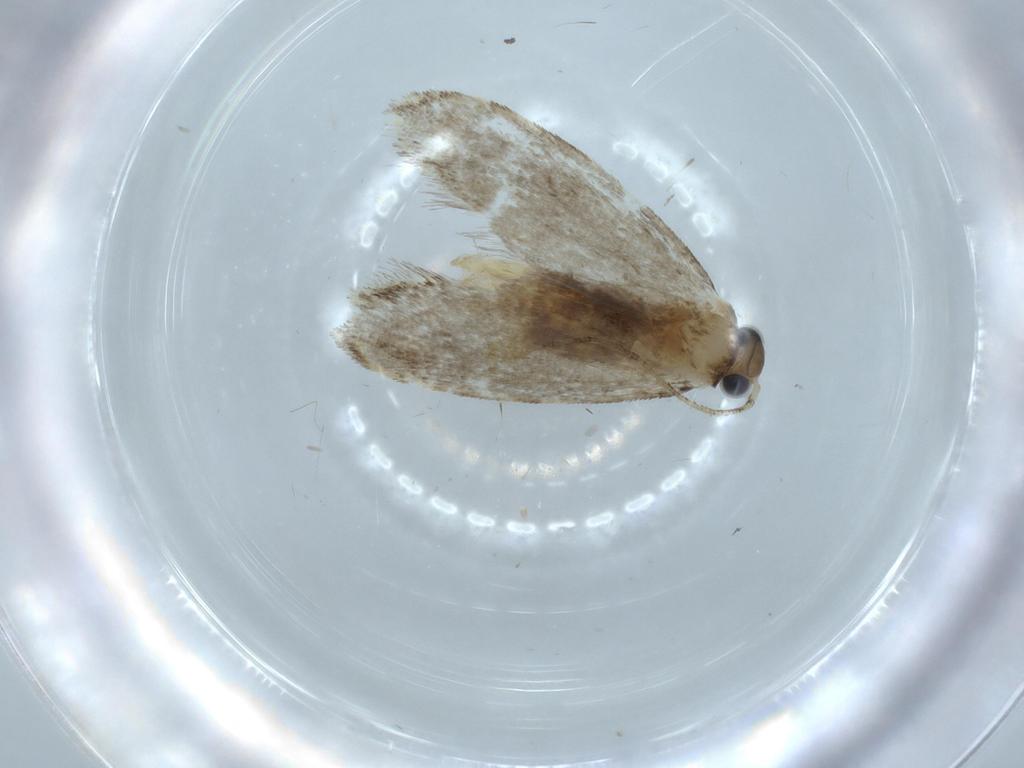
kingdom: Animalia
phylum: Arthropoda
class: Insecta
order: Lepidoptera
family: Tineidae
